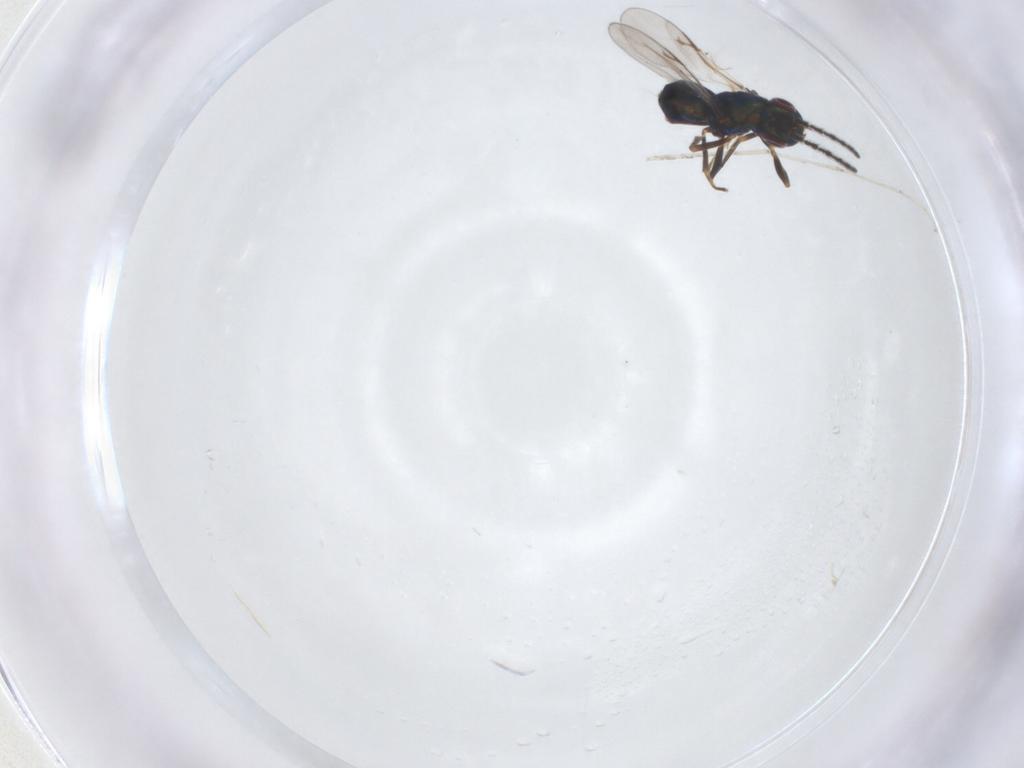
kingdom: Animalia
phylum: Arthropoda
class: Insecta
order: Hymenoptera
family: Encyrtidae
